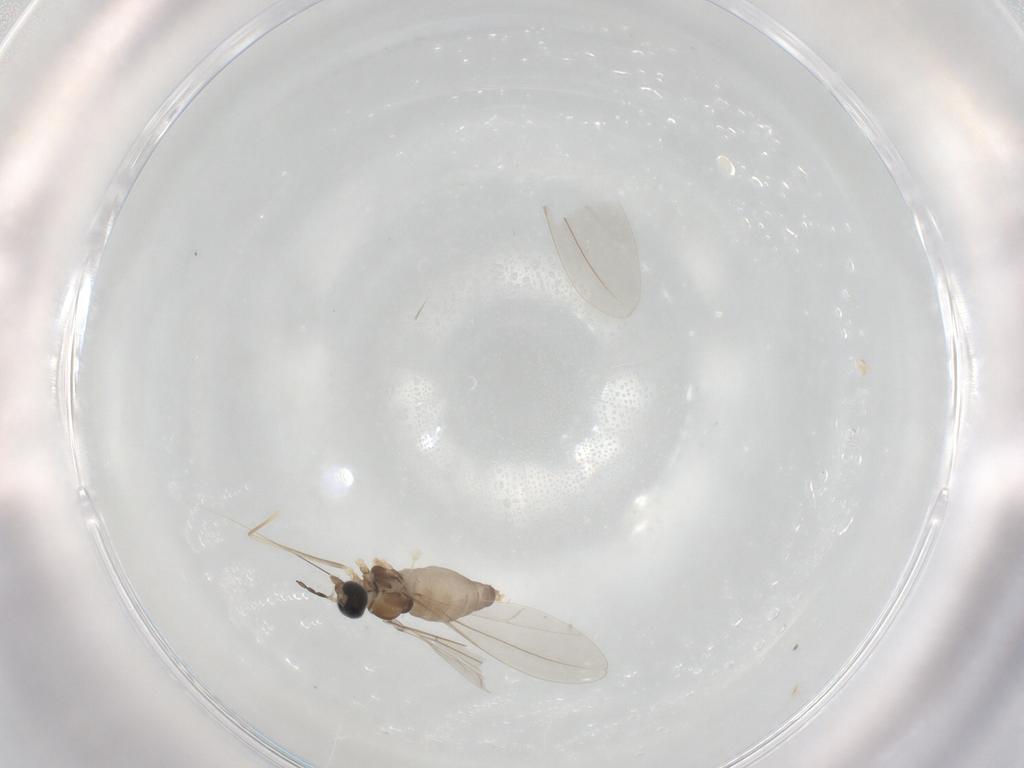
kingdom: Animalia
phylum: Arthropoda
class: Insecta
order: Diptera
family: Cecidomyiidae
